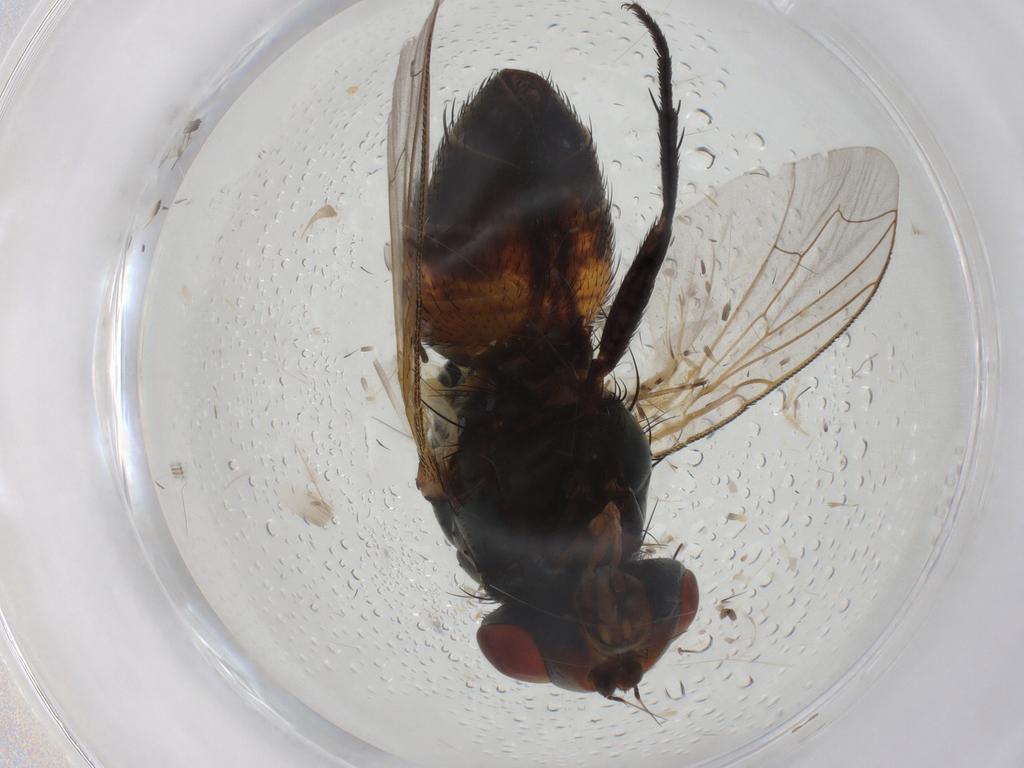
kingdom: Animalia
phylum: Arthropoda
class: Insecta
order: Diptera
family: Sarcophagidae
